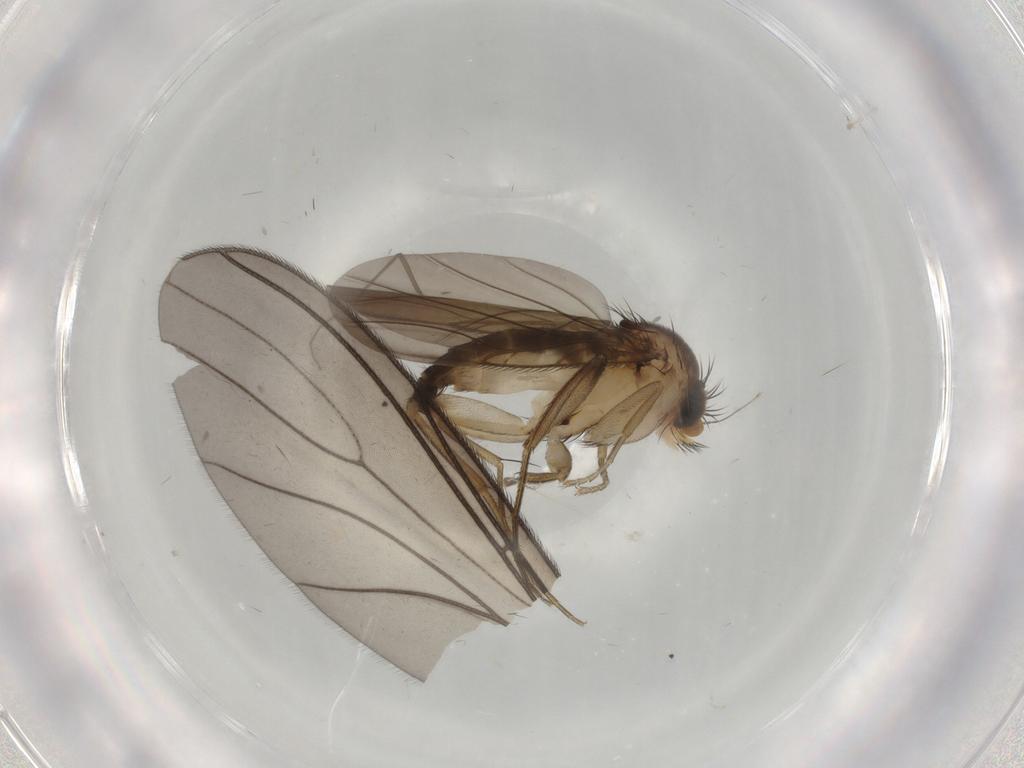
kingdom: Animalia
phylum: Arthropoda
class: Insecta
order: Diptera
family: Phoridae
